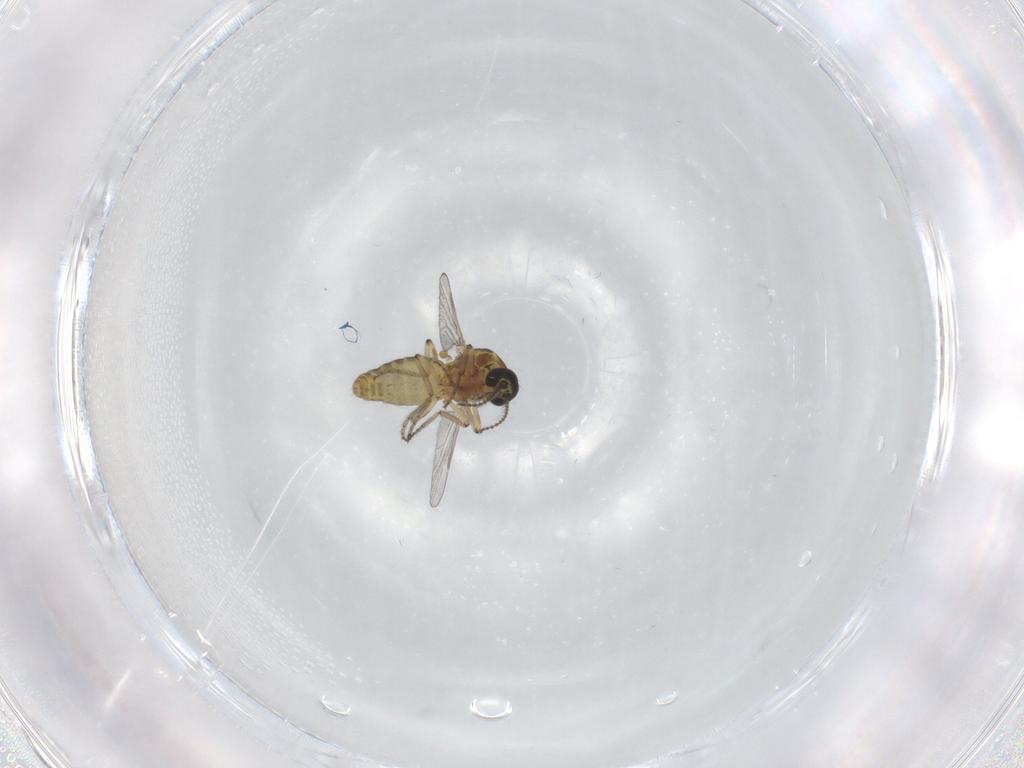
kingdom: Animalia
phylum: Arthropoda
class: Insecta
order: Diptera
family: Ceratopogonidae
